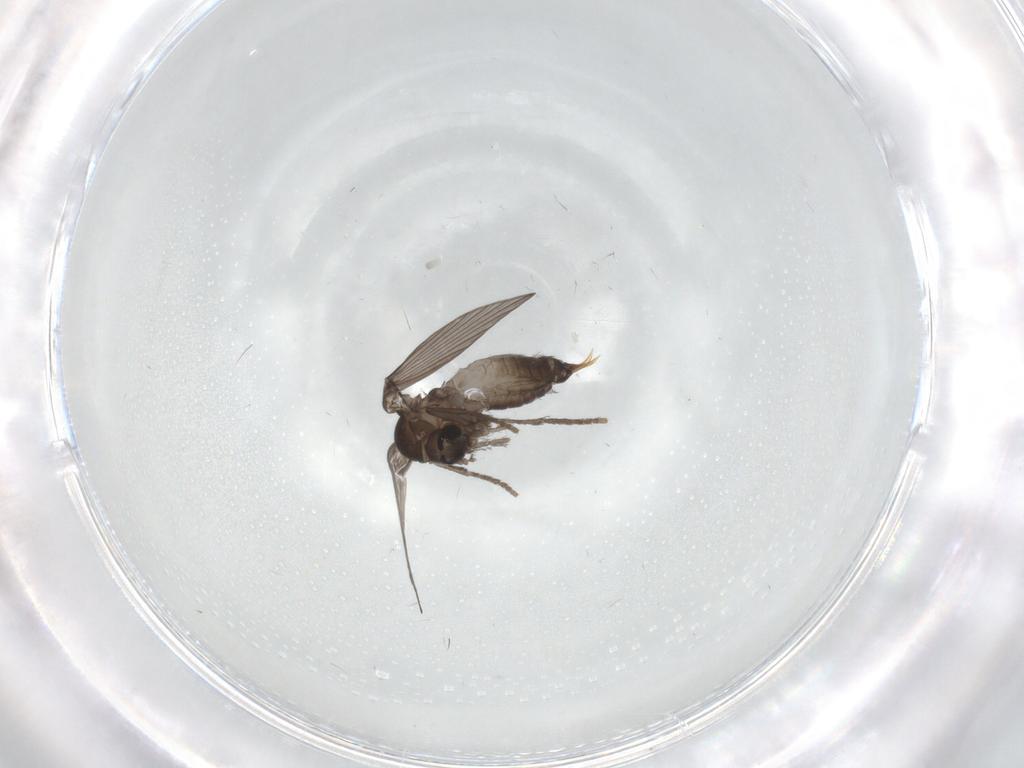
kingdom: Animalia
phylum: Arthropoda
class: Insecta
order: Diptera
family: Psychodidae
